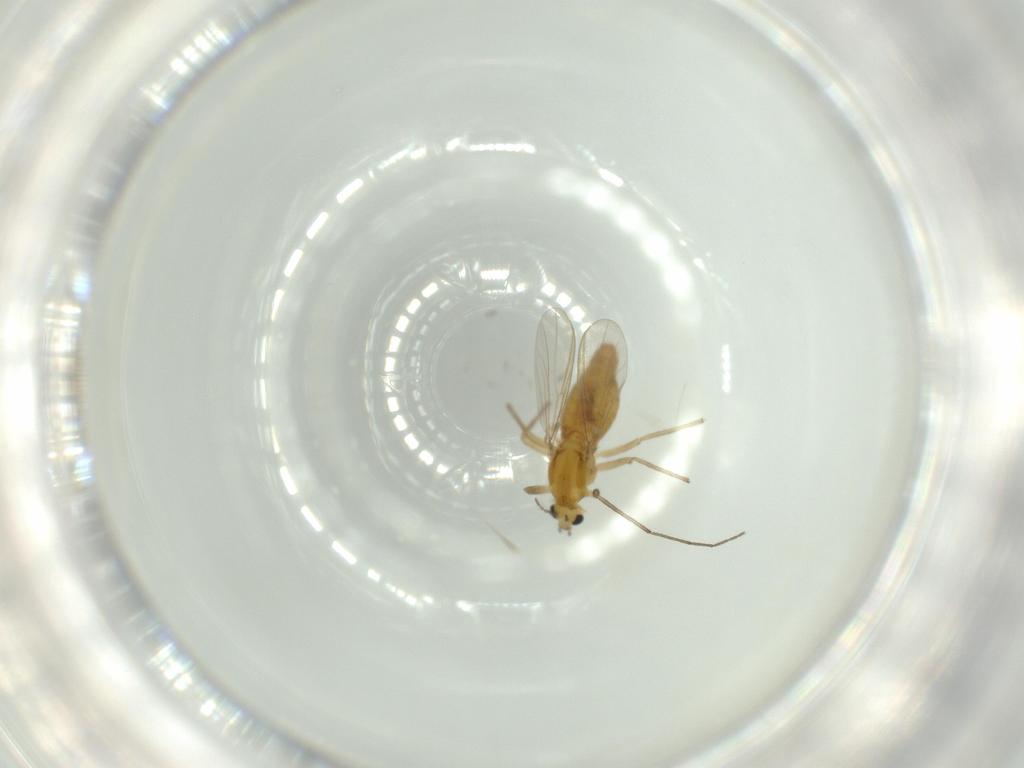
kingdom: Animalia
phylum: Arthropoda
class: Insecta
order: Diptera
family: Chironomidae
